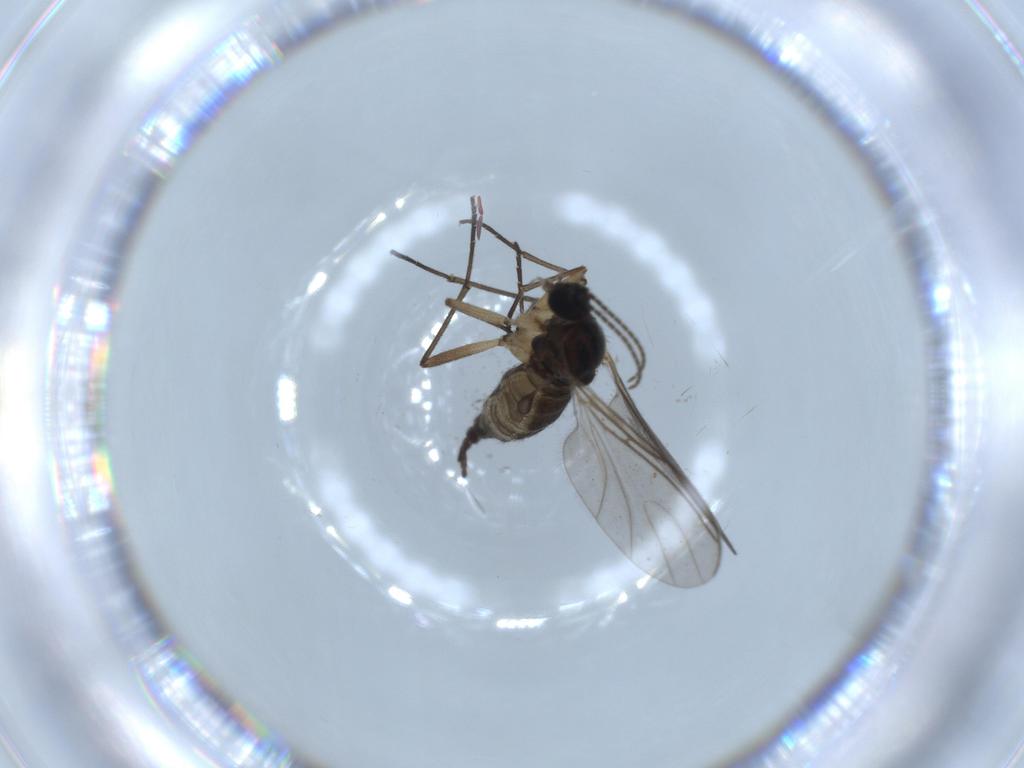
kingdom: Animalia
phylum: Arthropoda
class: Insecta
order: Diptera
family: Sciaridae
